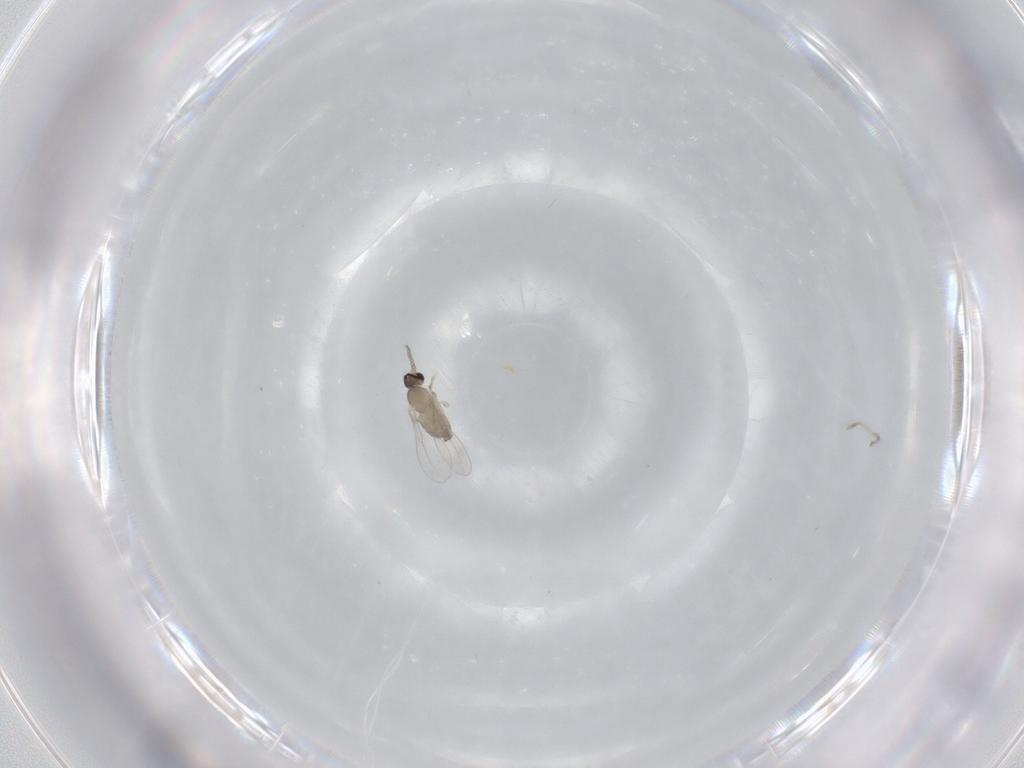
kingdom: Animalia
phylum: Arthropoda
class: Insecta
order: Diptera
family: Cecidomyiidae
